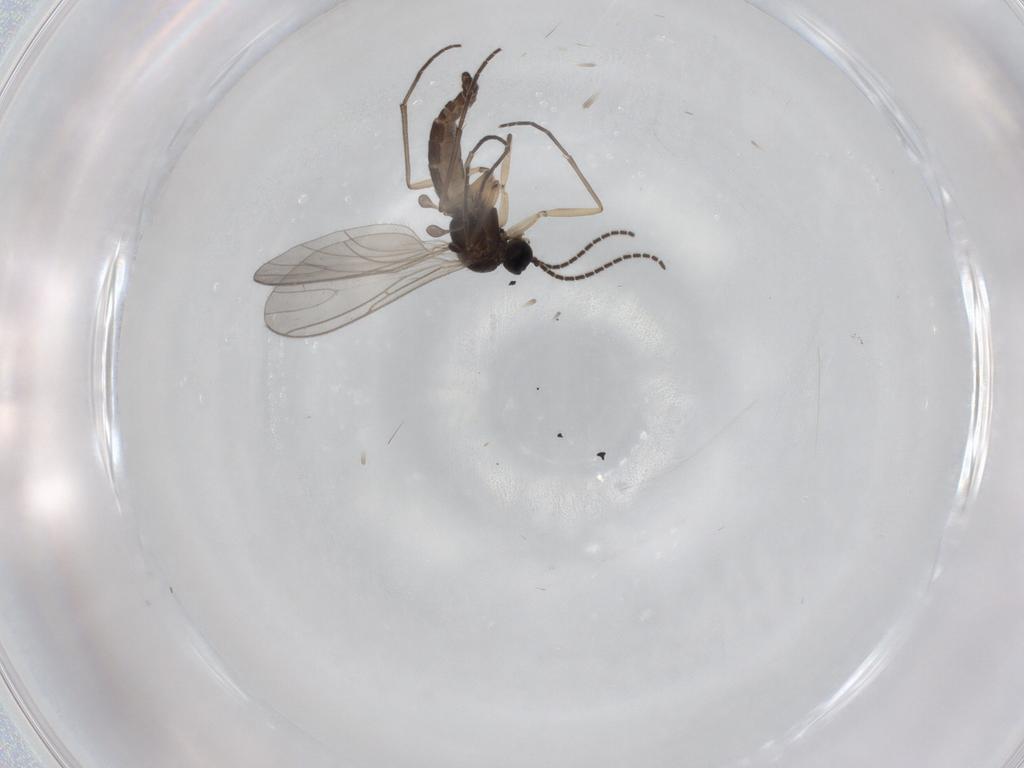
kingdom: Animalia
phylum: Arthropoda
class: Insecta
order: Diptera
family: Sciaridae
